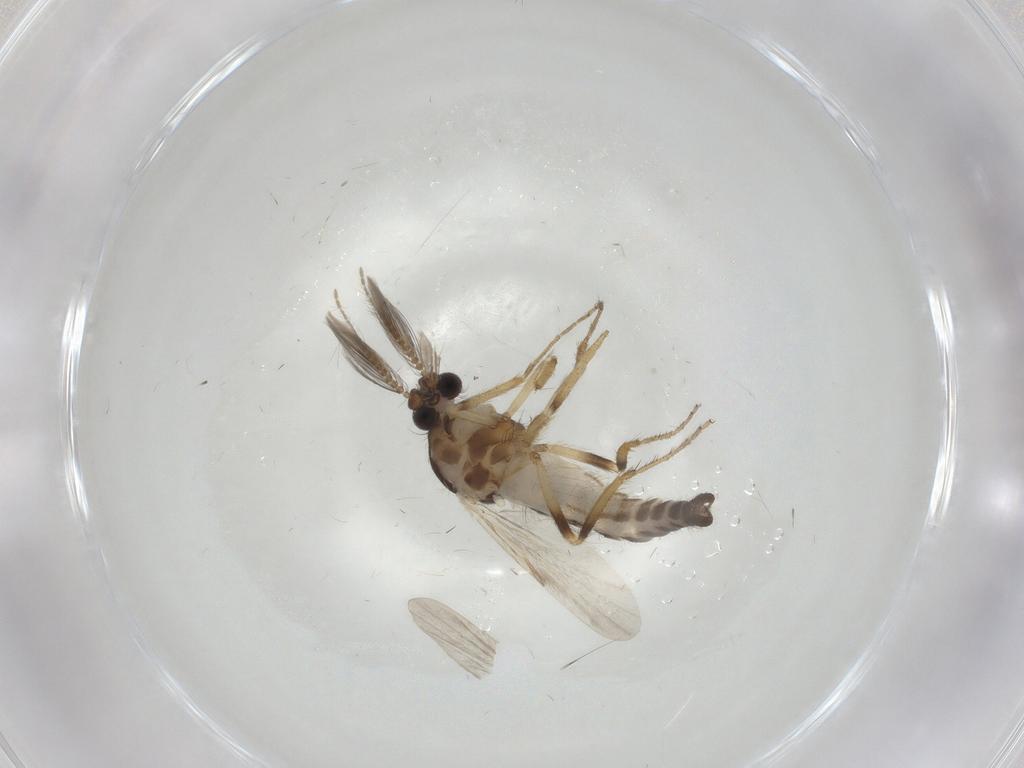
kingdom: Animalia
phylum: Arthropoda
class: Insecta
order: Diptera
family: Ceratopogonidae
